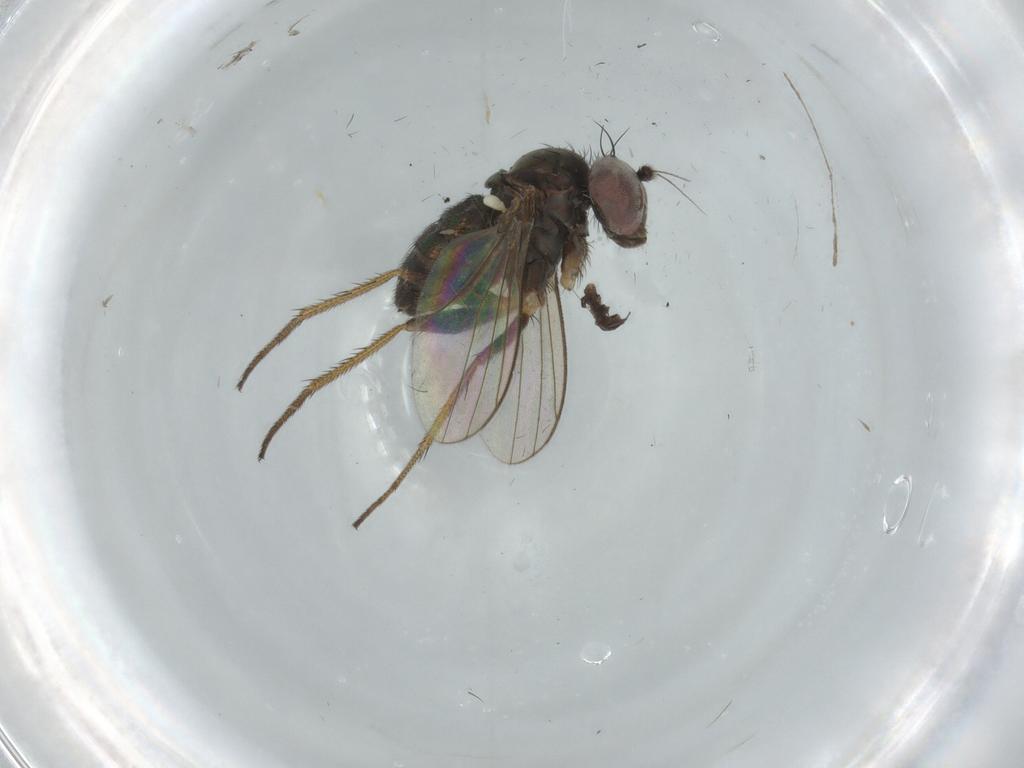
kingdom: Animalia
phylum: Arthropoda
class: Insecta
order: Diptera
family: Dolichopodidae
